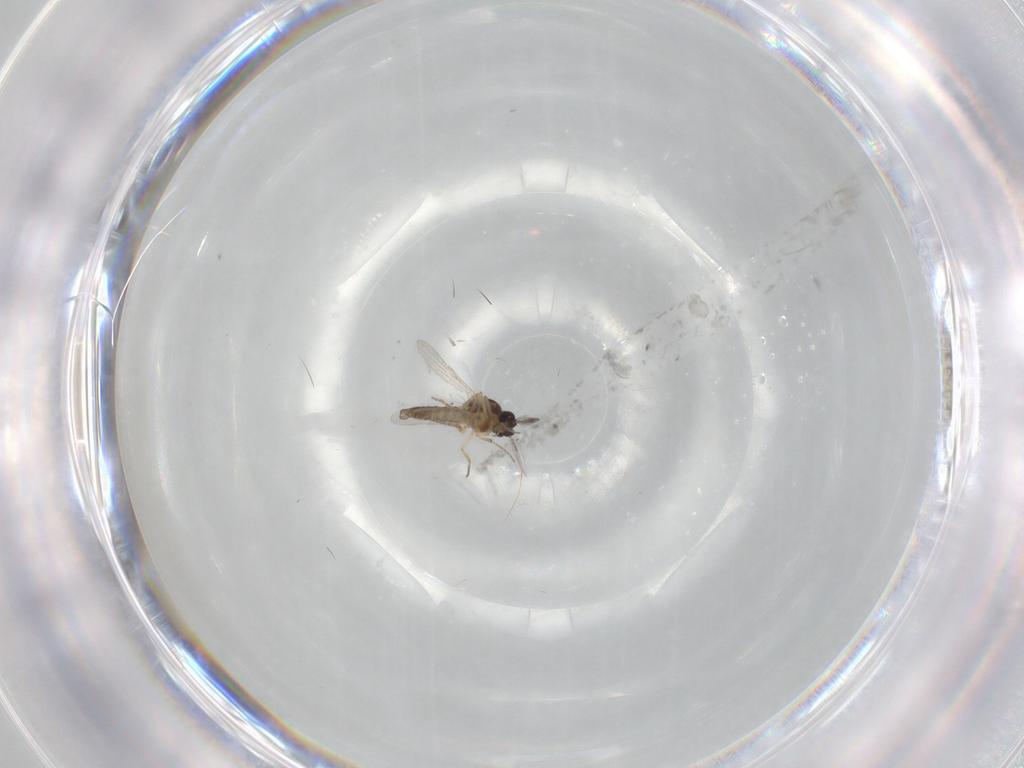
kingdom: Animalia
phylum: Arthropoda
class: Insecta
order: Diptera
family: Ceratopogonidae
